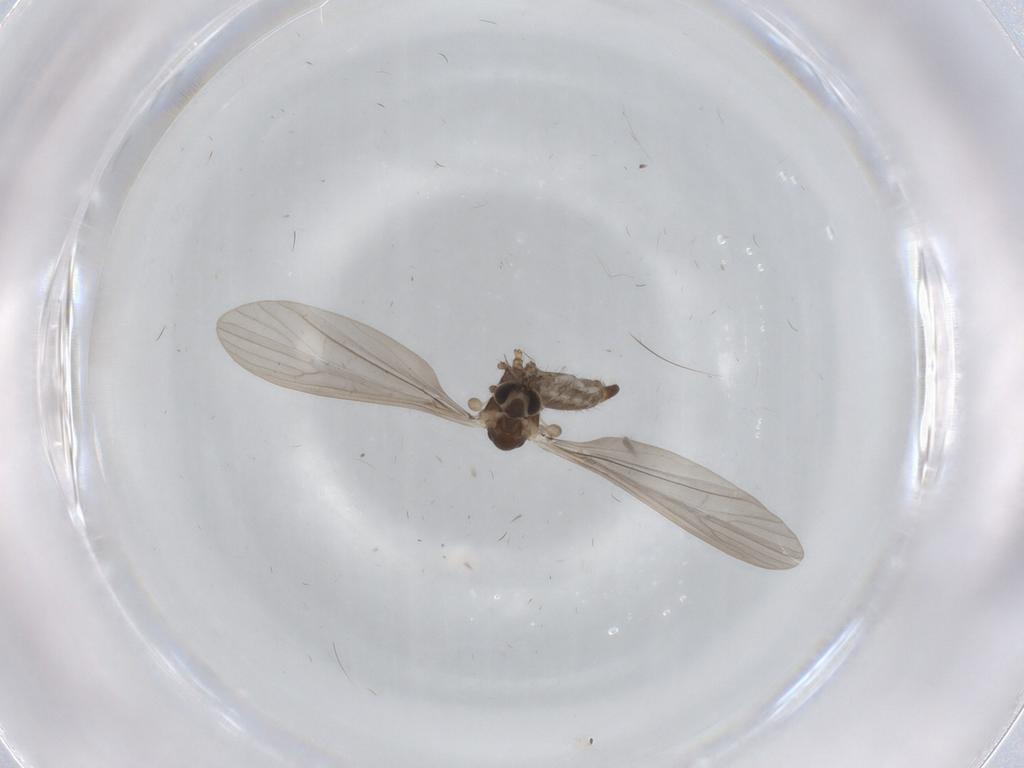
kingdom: Animalia
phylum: Arthropoda
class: Insecta
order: Diptera
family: Limoniidae
